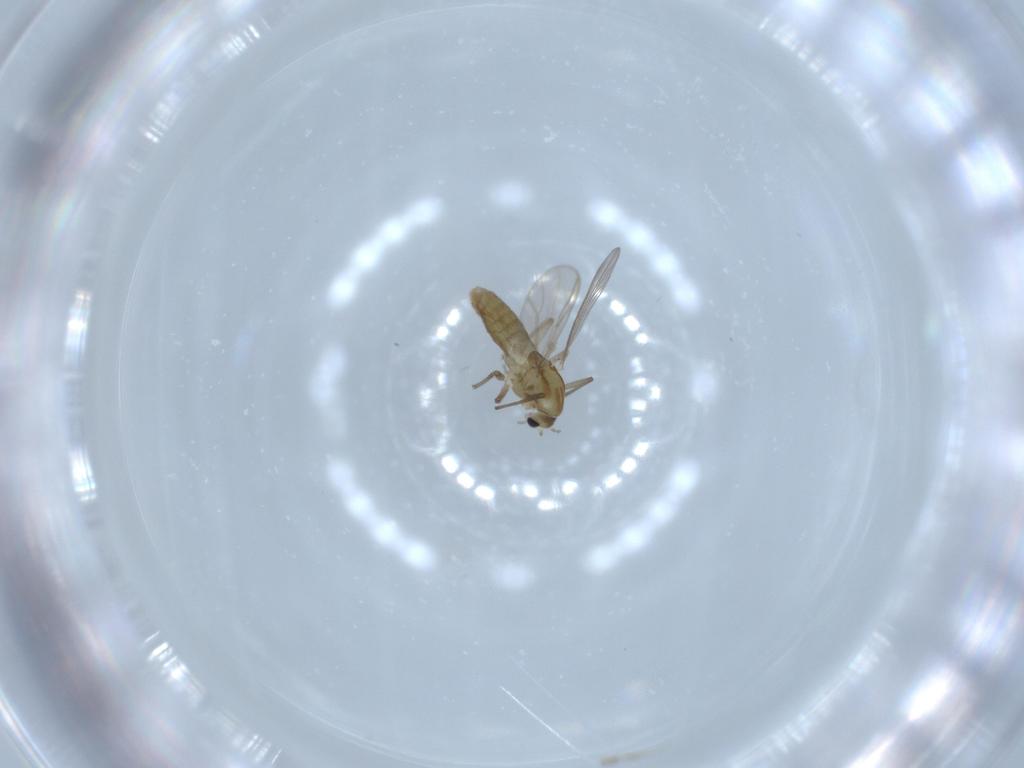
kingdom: Animalia
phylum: Arthropoda
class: Insecta
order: Diptera
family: Chironomidae
